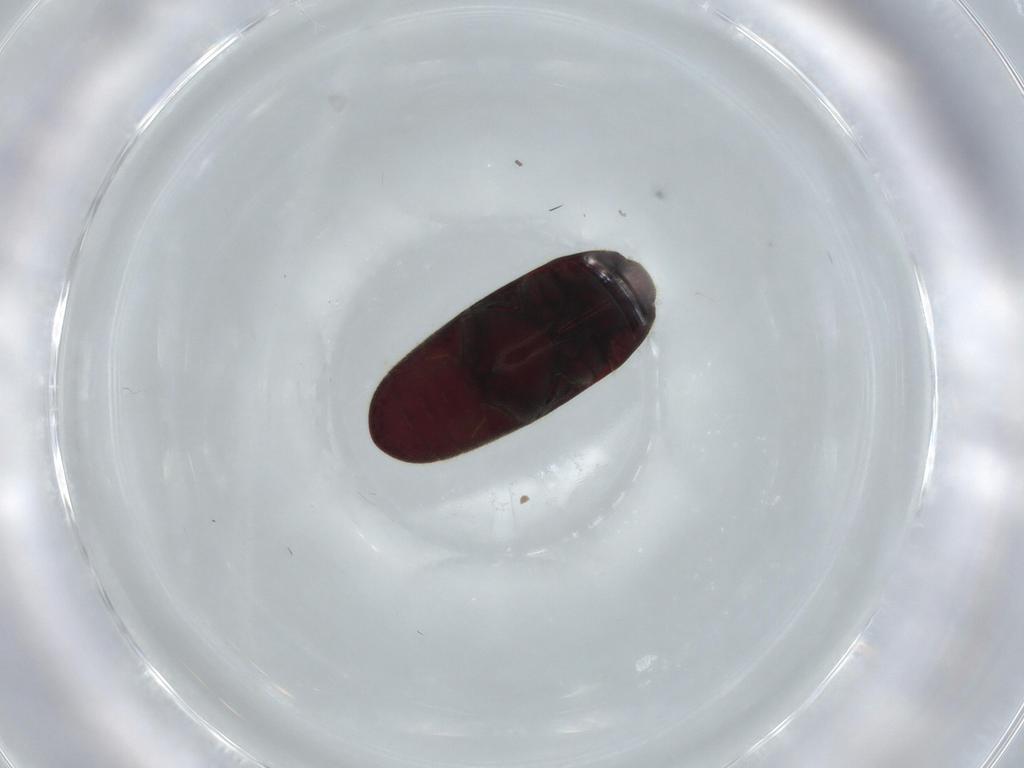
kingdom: Animalia
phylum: Arthropoda
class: Insecta
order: Coleoptera
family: Throscidae
